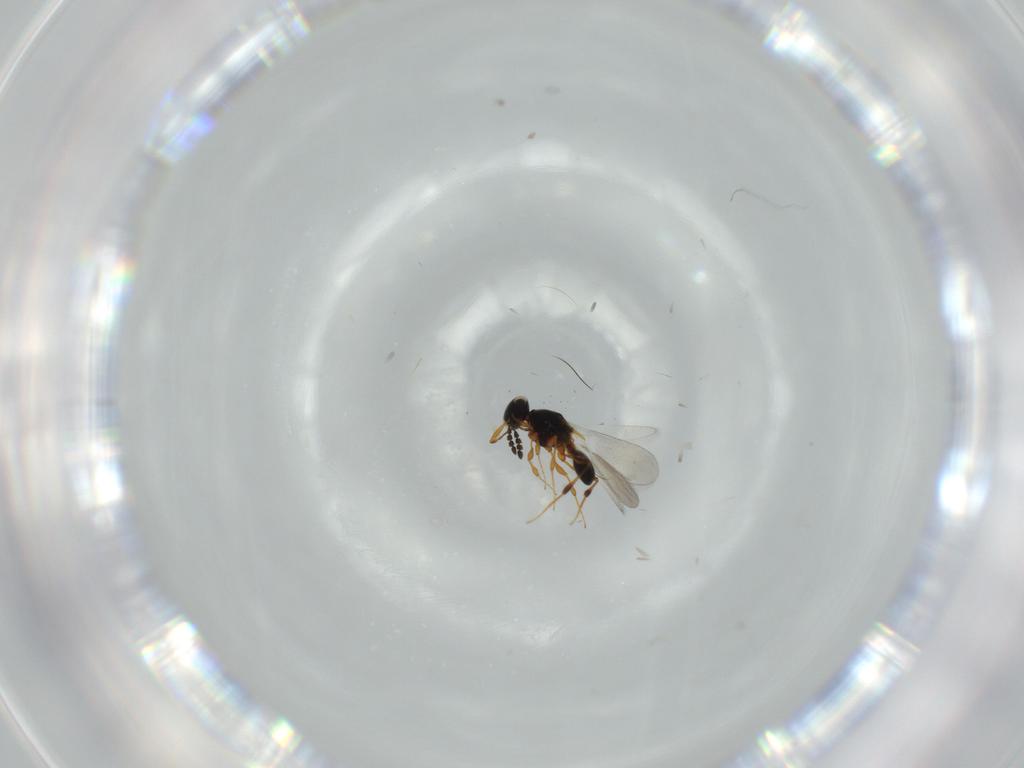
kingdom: Animalia
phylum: Arthropoda
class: Insecta
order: Hymenoptera
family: Platygastridae
